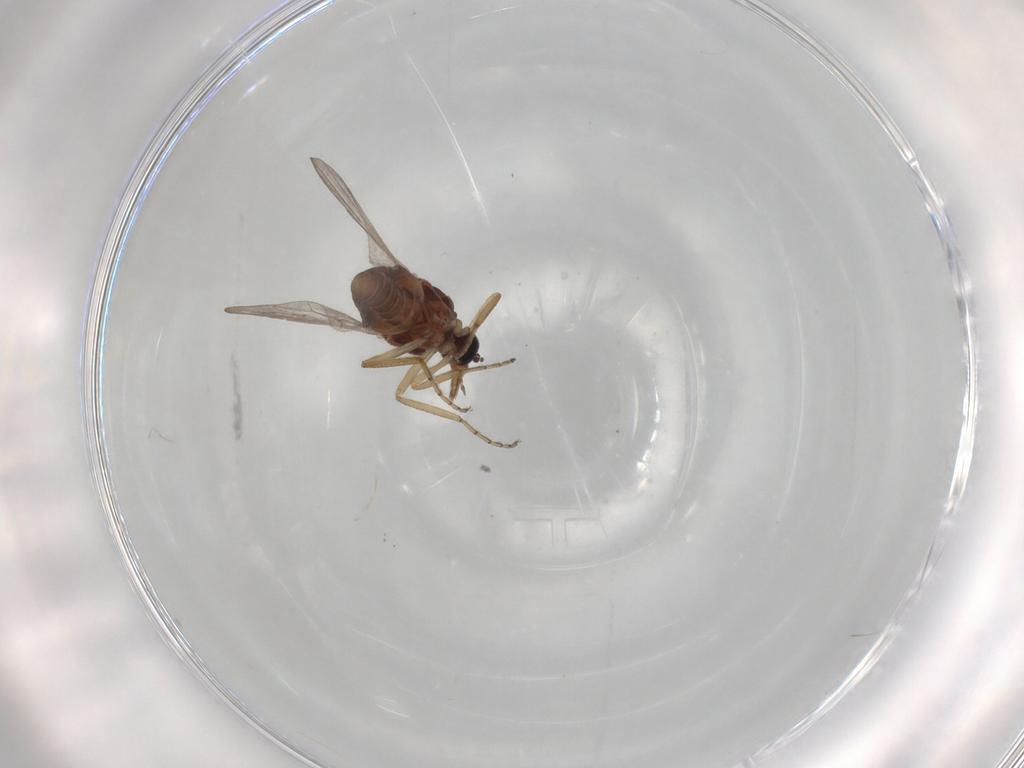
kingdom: Animalia
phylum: Arthropoda
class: Insecta
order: Diptera
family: Ceratopogonidae
